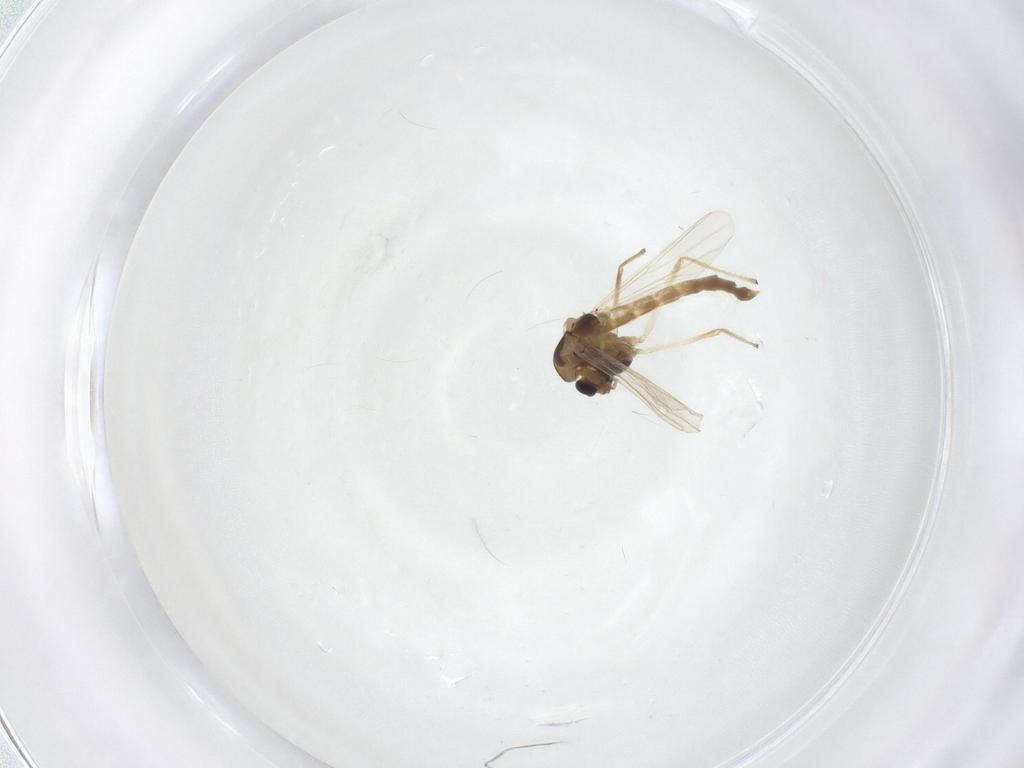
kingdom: Animalia
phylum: Arthropoda
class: Insecta
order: Diptera
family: Chironomidae
